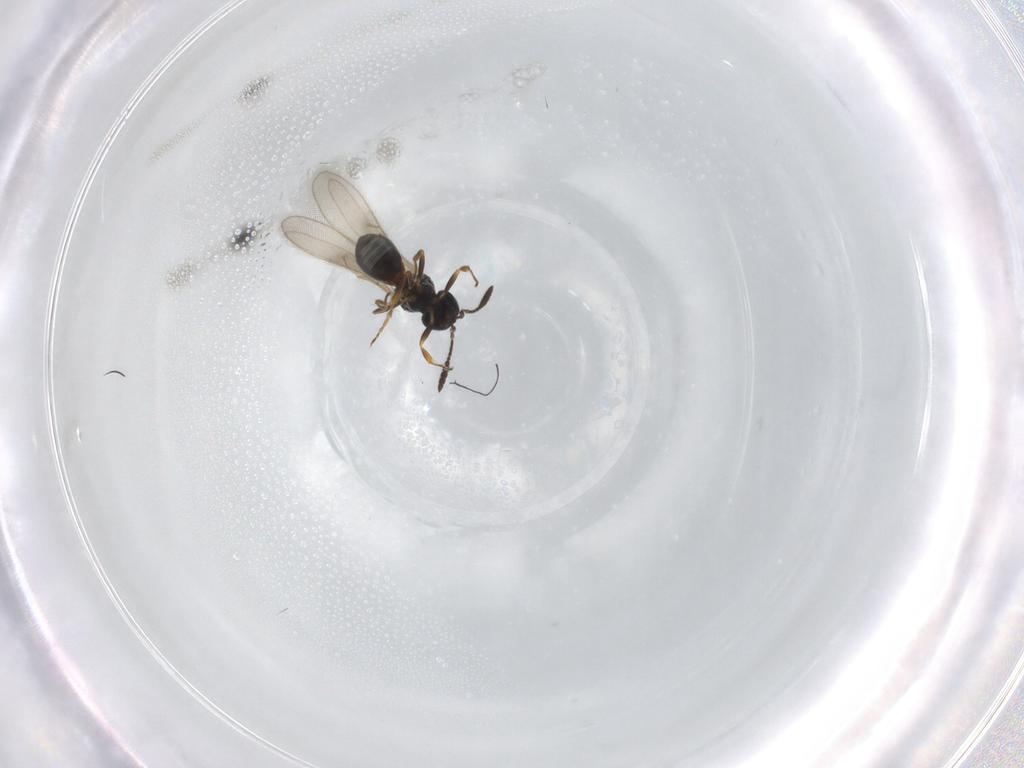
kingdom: Animalia
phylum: Arthropoda
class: Insecta
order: Hymenoptera
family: Scelionidae
